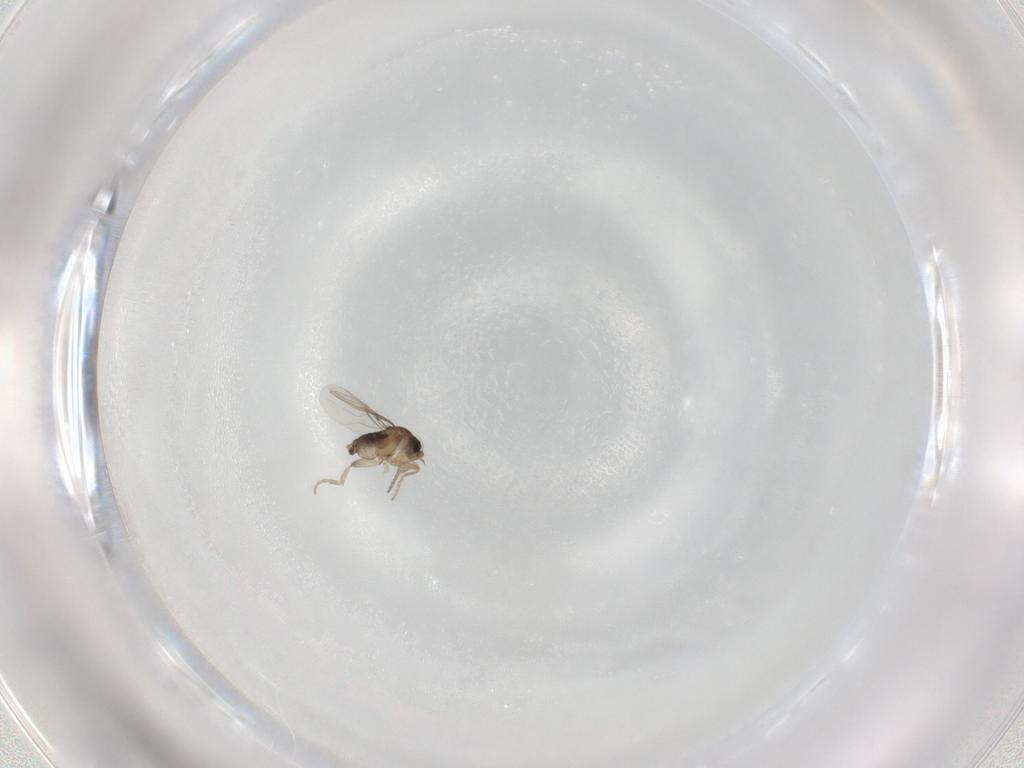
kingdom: Animalia
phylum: Arthropoda
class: Insecta
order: Diptera
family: Phoridae
